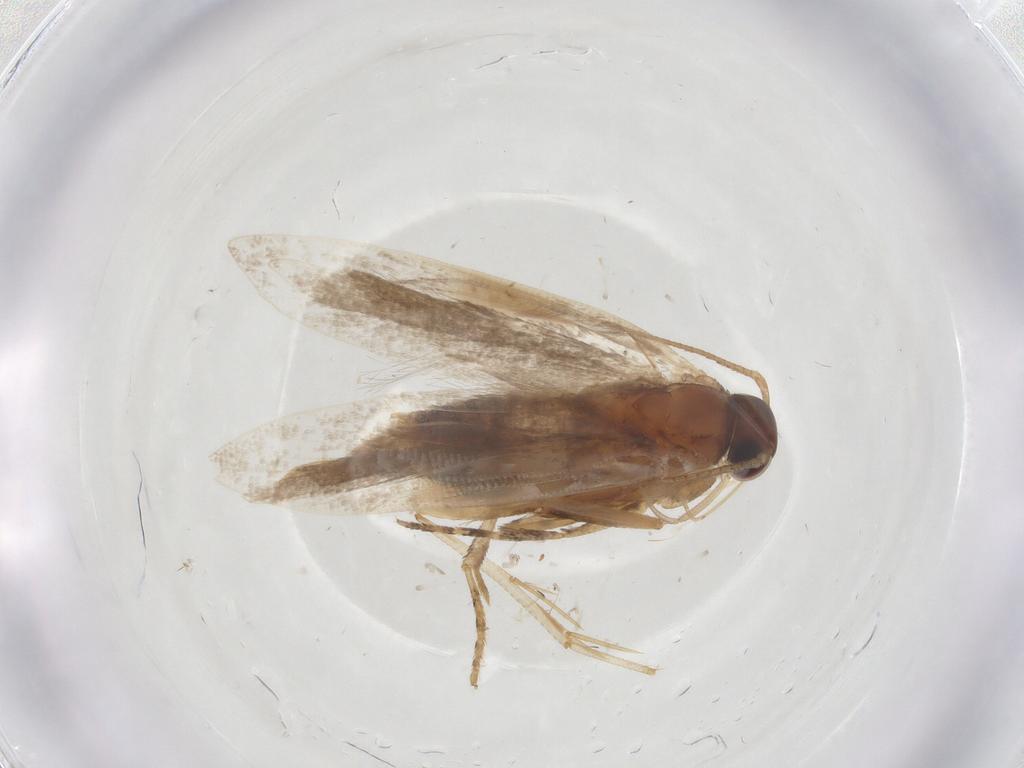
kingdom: Animalia
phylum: Arthropoda
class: Insecta
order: Lepidoptera
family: Gelechiidae
